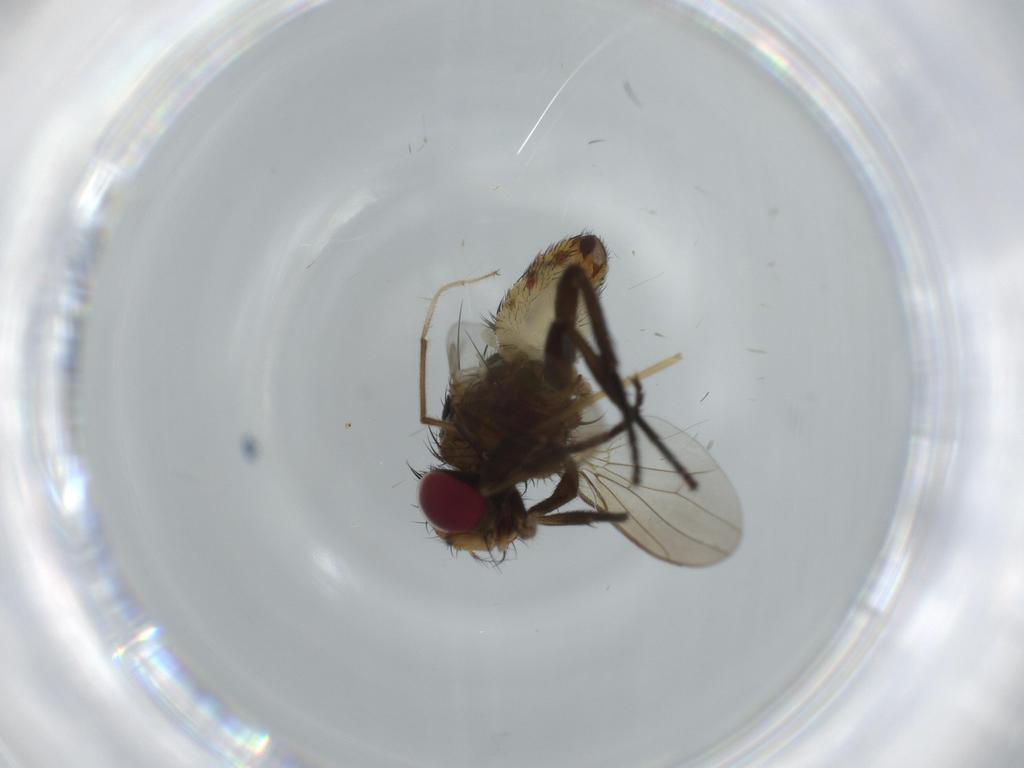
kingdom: Animalia
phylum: Arthropoda
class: Insecta
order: Diptera
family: Anthomyiidae
